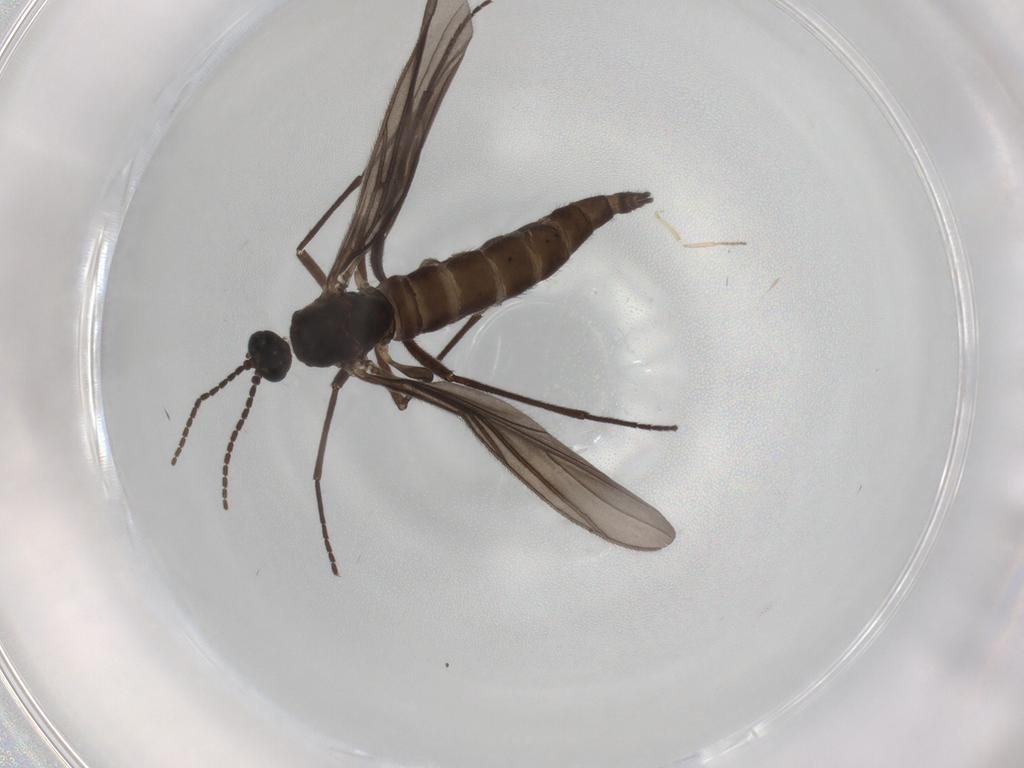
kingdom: Animalia
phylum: Arthropoda
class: Insecta
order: Diptera
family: Sciaridae
